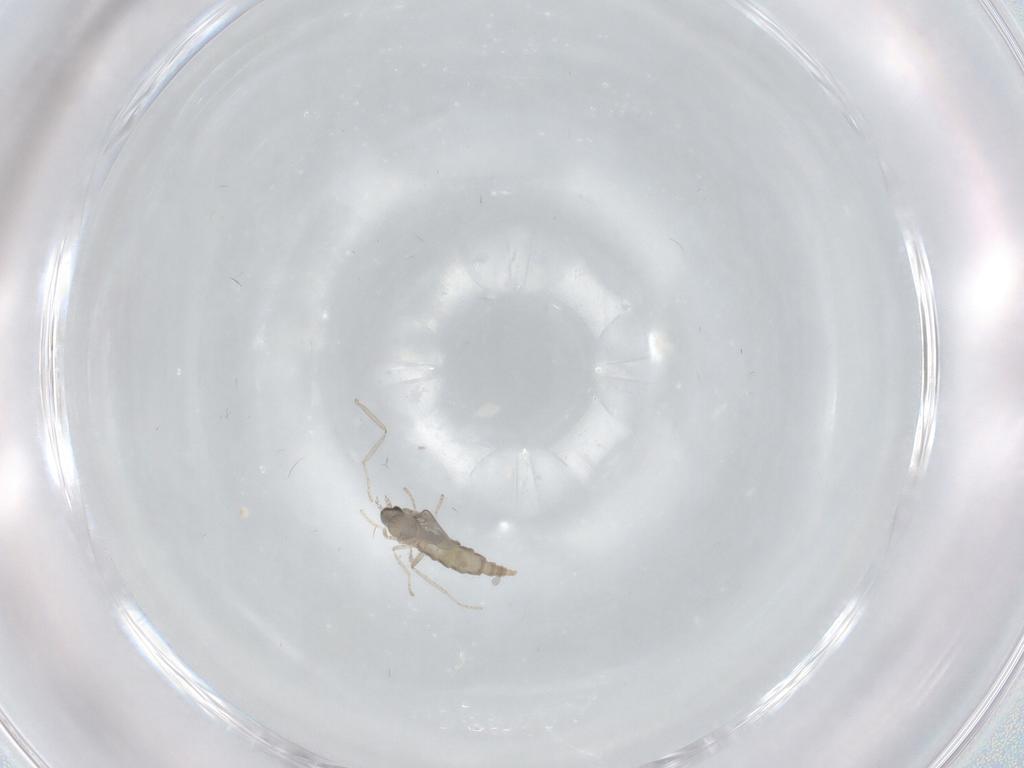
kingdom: Animalia
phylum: Arthropoda
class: Insecta
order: Diptera
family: Cecidomyiidae
